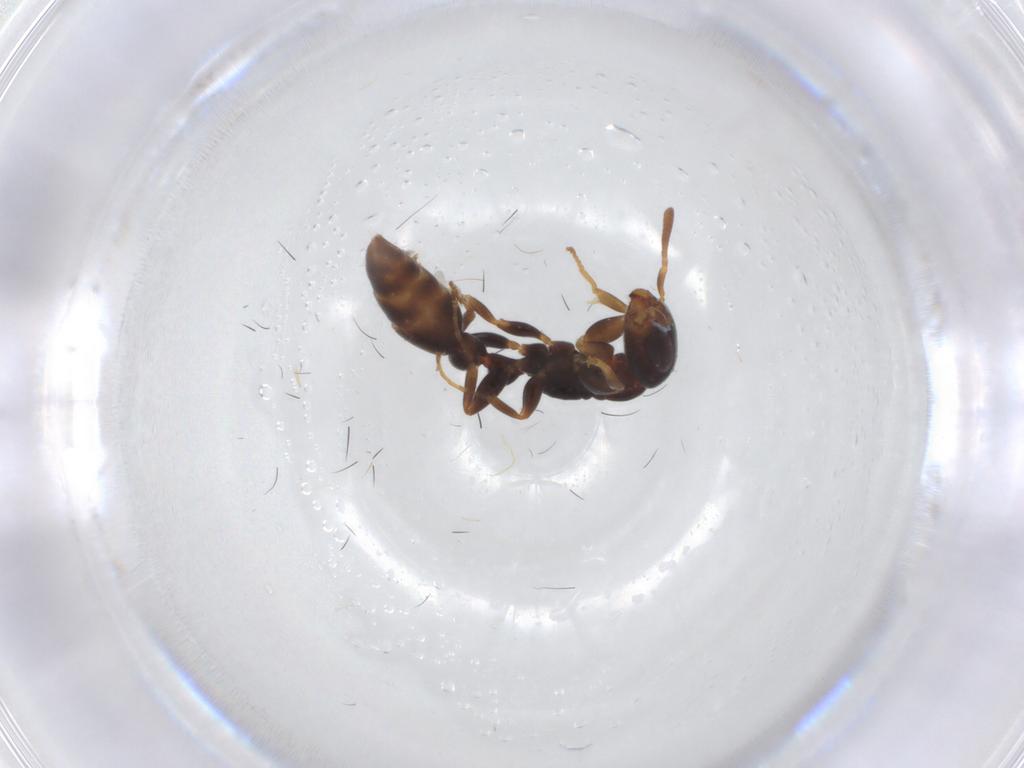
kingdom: Animalia
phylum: Arthropoda
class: Insecta
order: Hymenoptera
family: Formicidae
